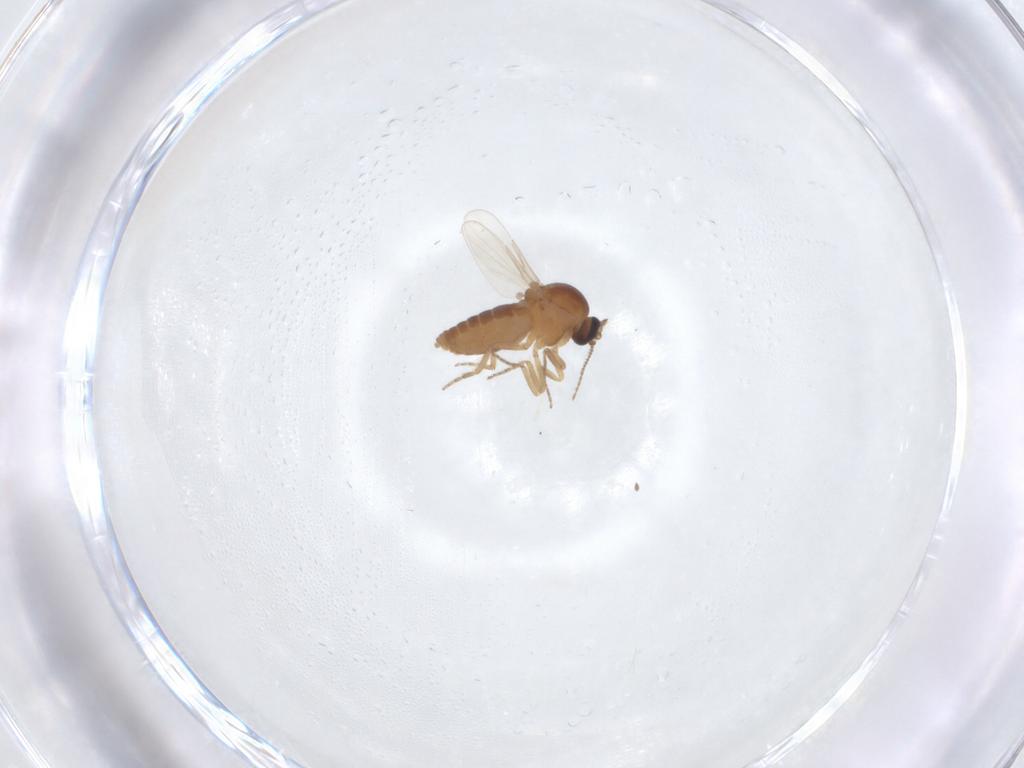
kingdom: Animalia
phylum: Arthropoda
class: Insecta
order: Diptera
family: Ceratopogonidae
